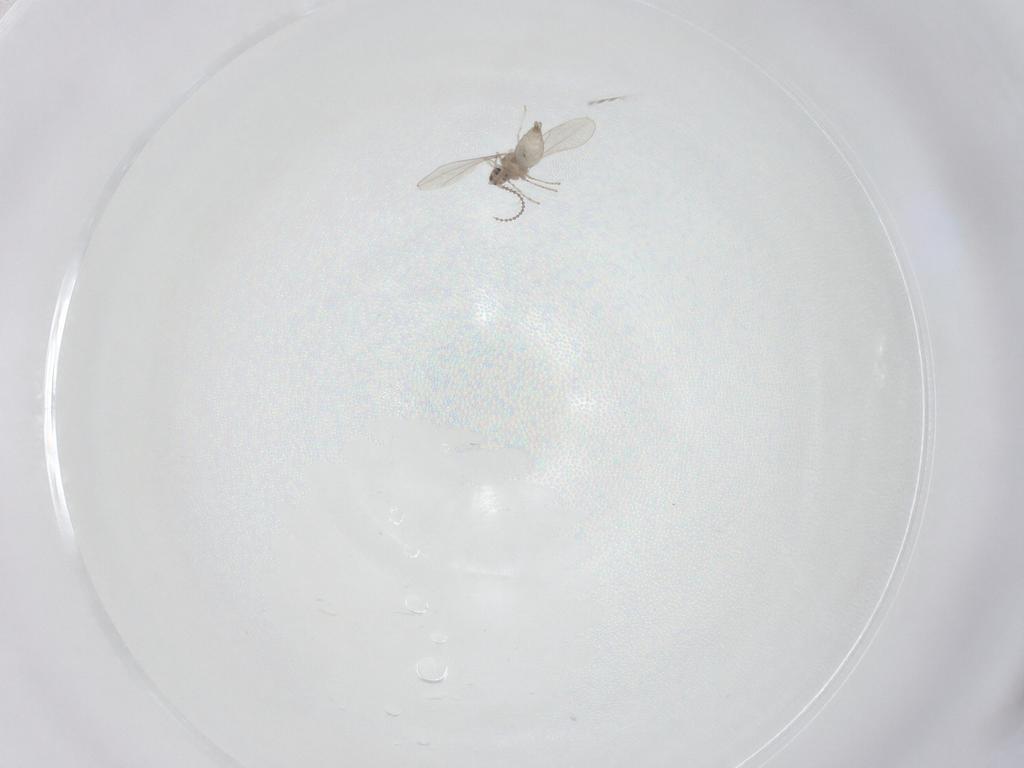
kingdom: Animalia
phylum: Arthropoda
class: Insecta
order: Diptera
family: Cecidomyiidae
